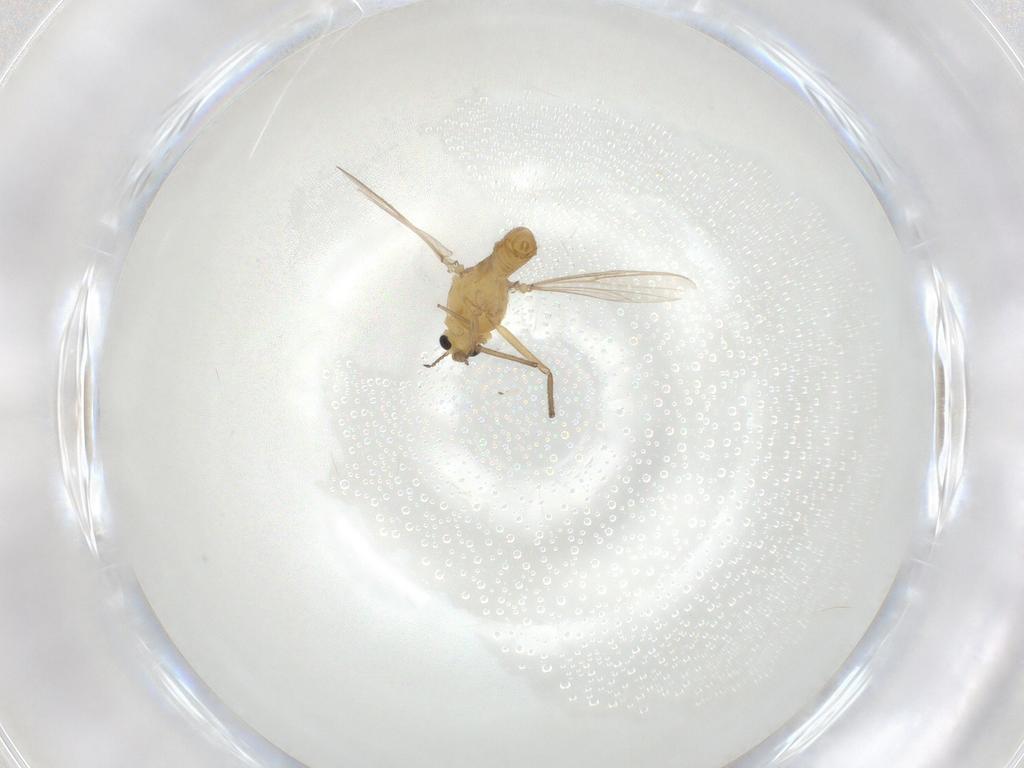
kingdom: Animalia
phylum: Arthropoda
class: Insecta
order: Diptera
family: Chironomidae
